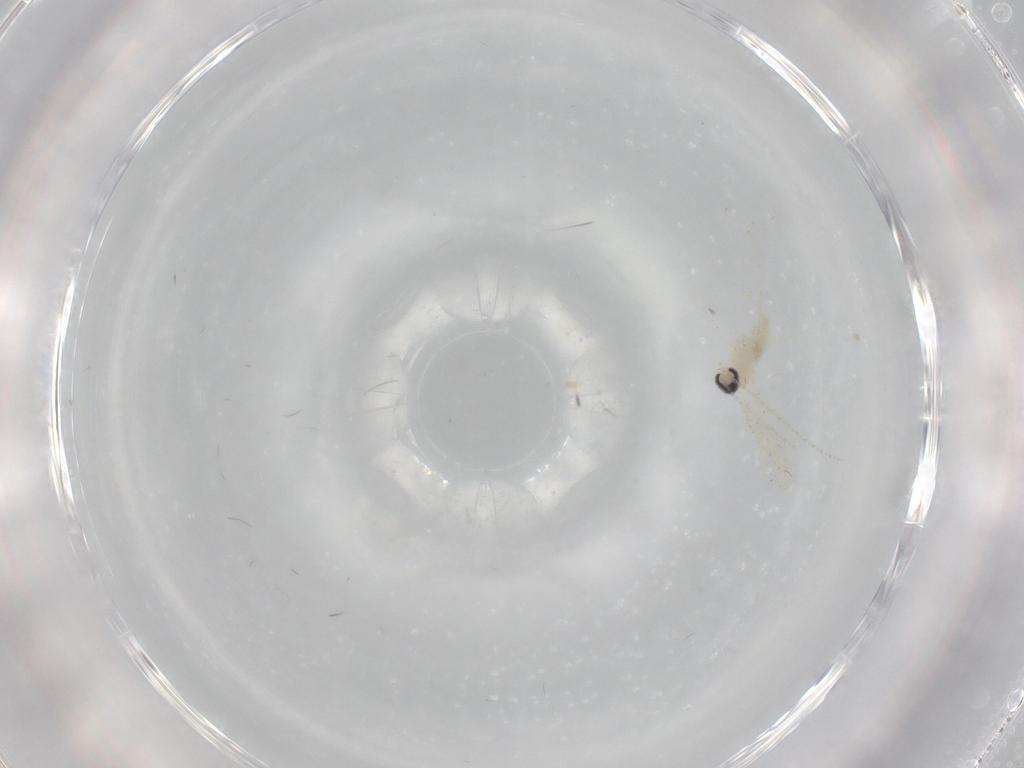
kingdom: Animalia
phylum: Arthropoda
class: Insecta
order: Diptera
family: Cecidomyiidae
